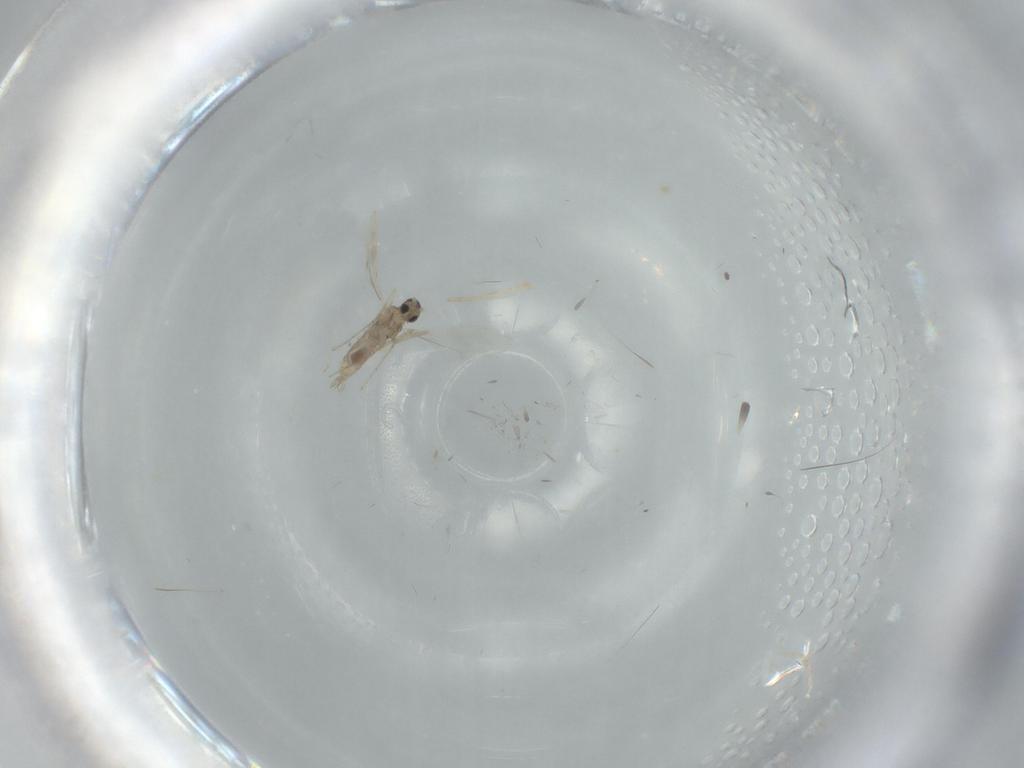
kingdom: Animalia
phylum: Arthropoda
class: Insecta
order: Diptera
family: Cecidomyiidae
